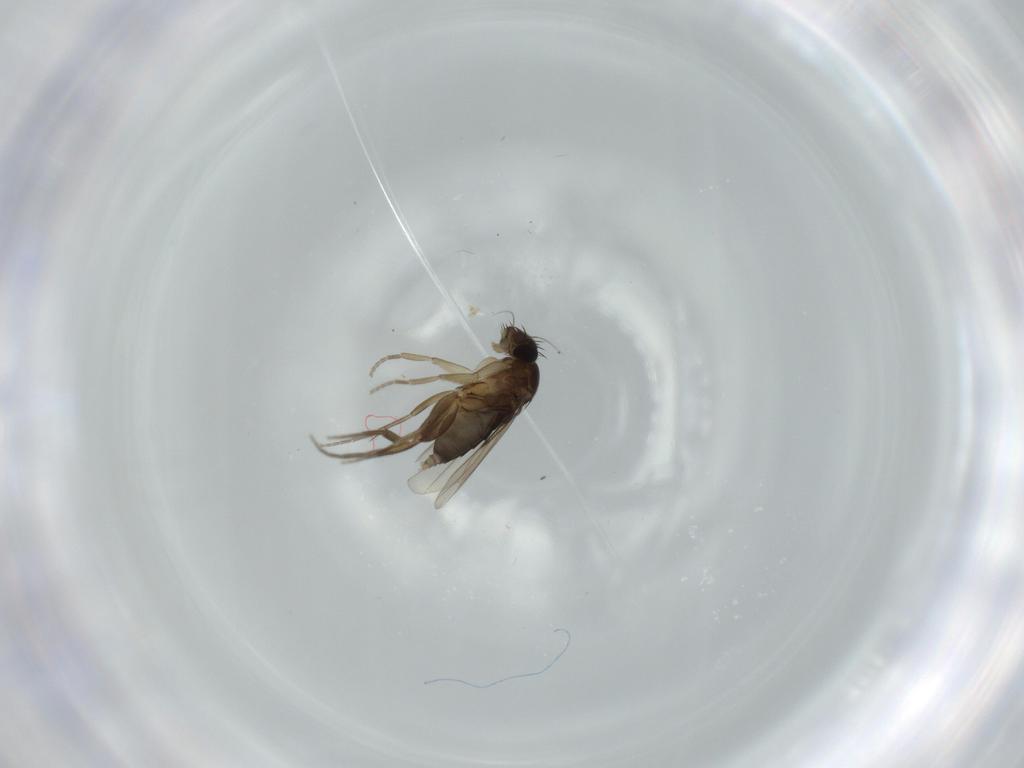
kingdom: Animalia
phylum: Arthropoda
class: Insecta
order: Diptera
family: Phoridae
